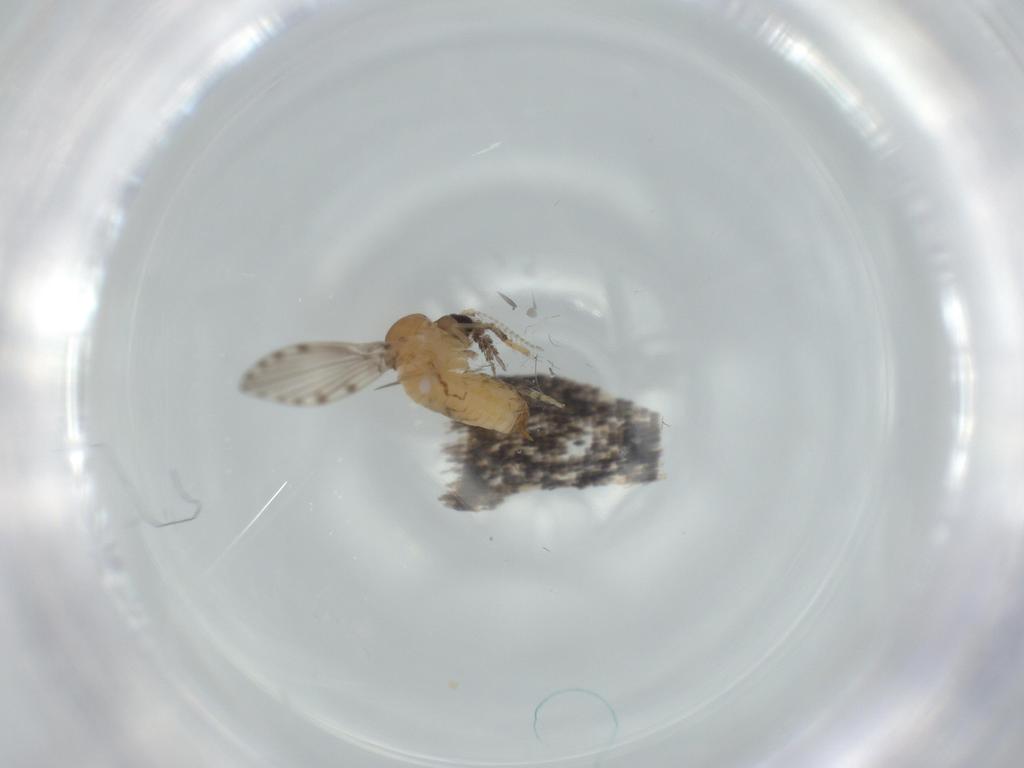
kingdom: Animalia
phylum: Arthropoda
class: Insecta
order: Diptera
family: Psychodidae
